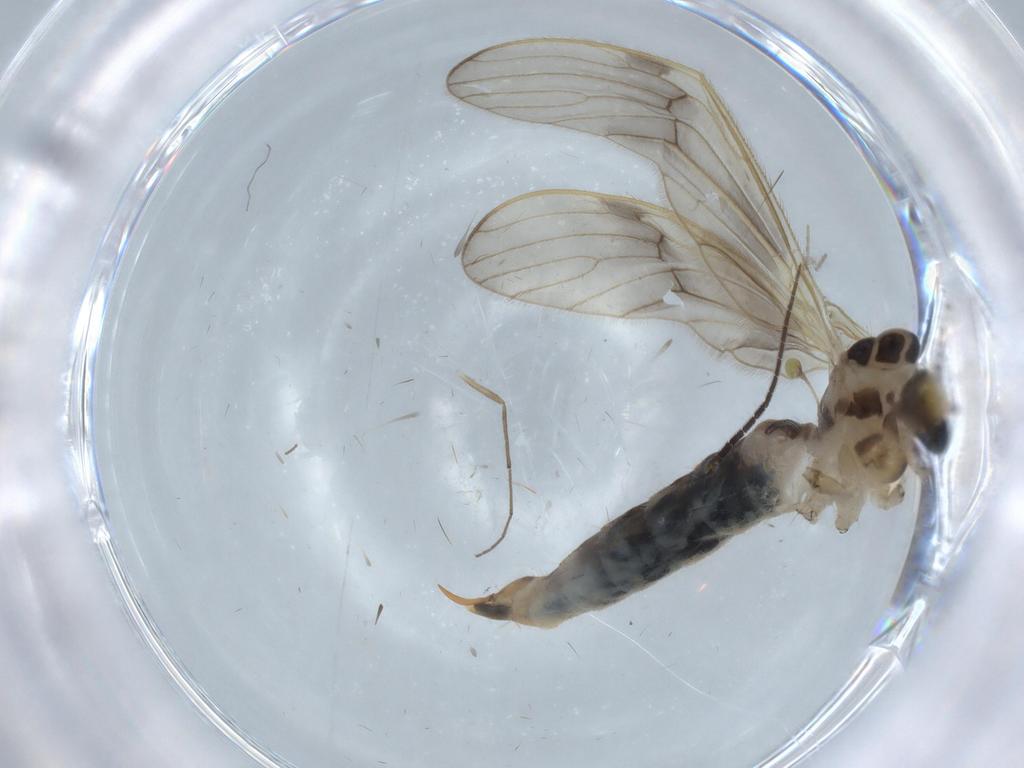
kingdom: Animalia
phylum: Arthropoda
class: Insecta
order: Diptera
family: Limoniidae
